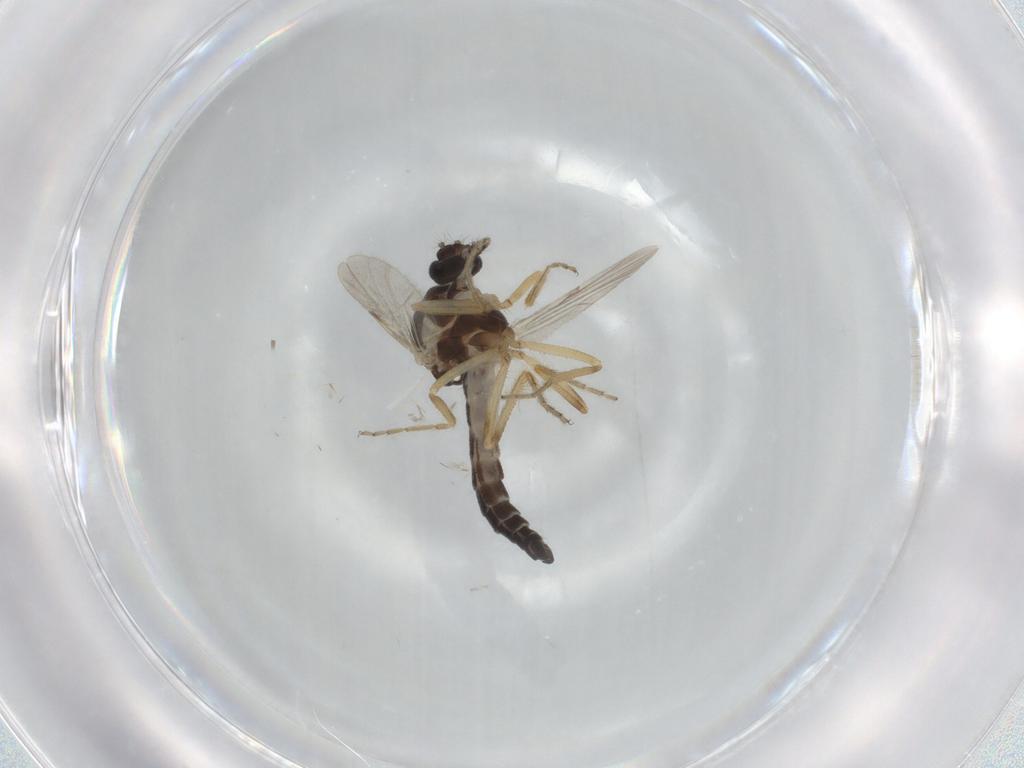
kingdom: Animalia
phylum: Arthropoda
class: Insecta
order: Diptera
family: Ceratopogonidae
